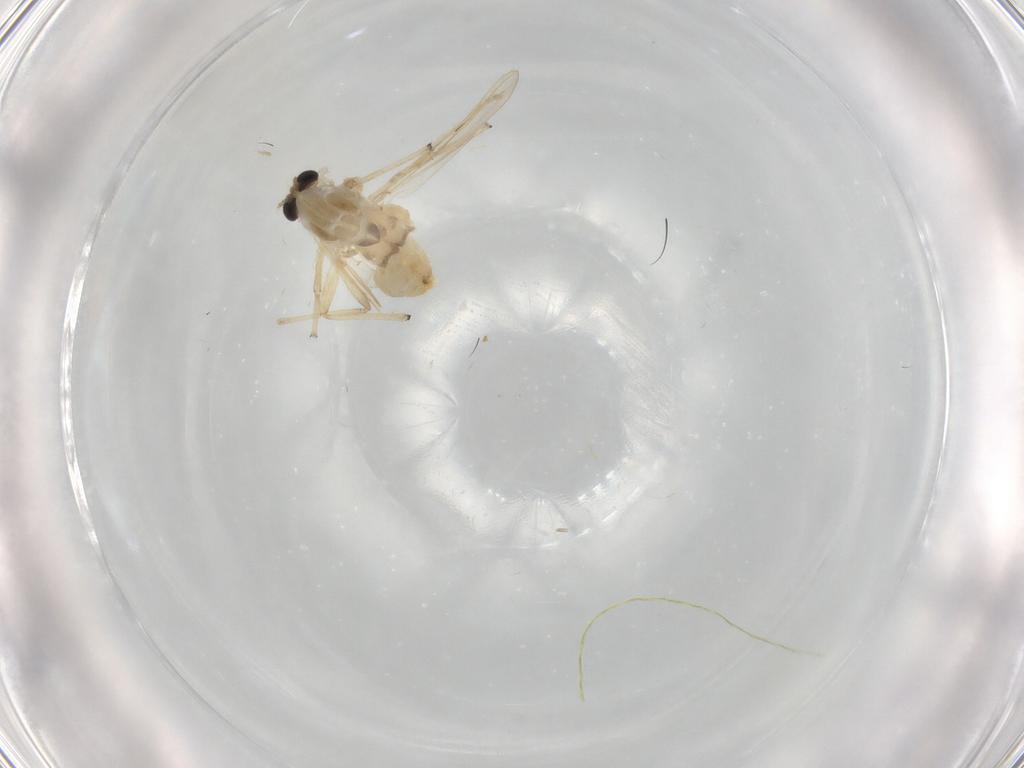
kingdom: Animalia
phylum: Arthropoda
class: Insecta
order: Diptera
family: Chironomidae
